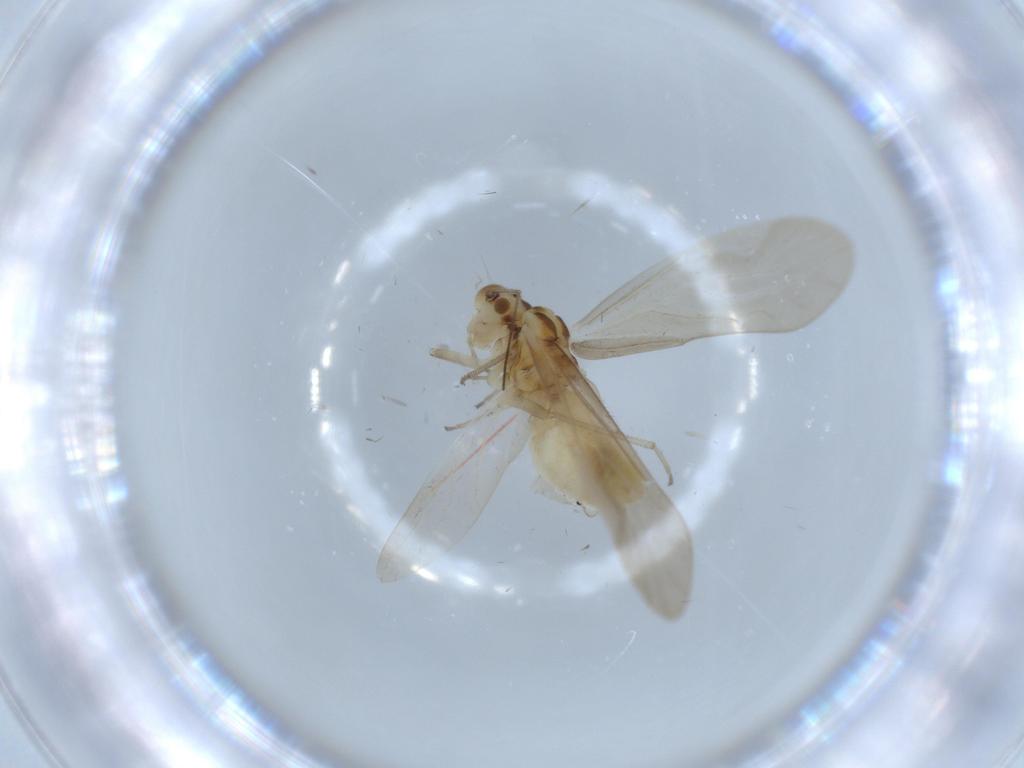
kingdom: Animalia
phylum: Arthropoda
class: Insecta
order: Psocodea
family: Caeciliusidae
